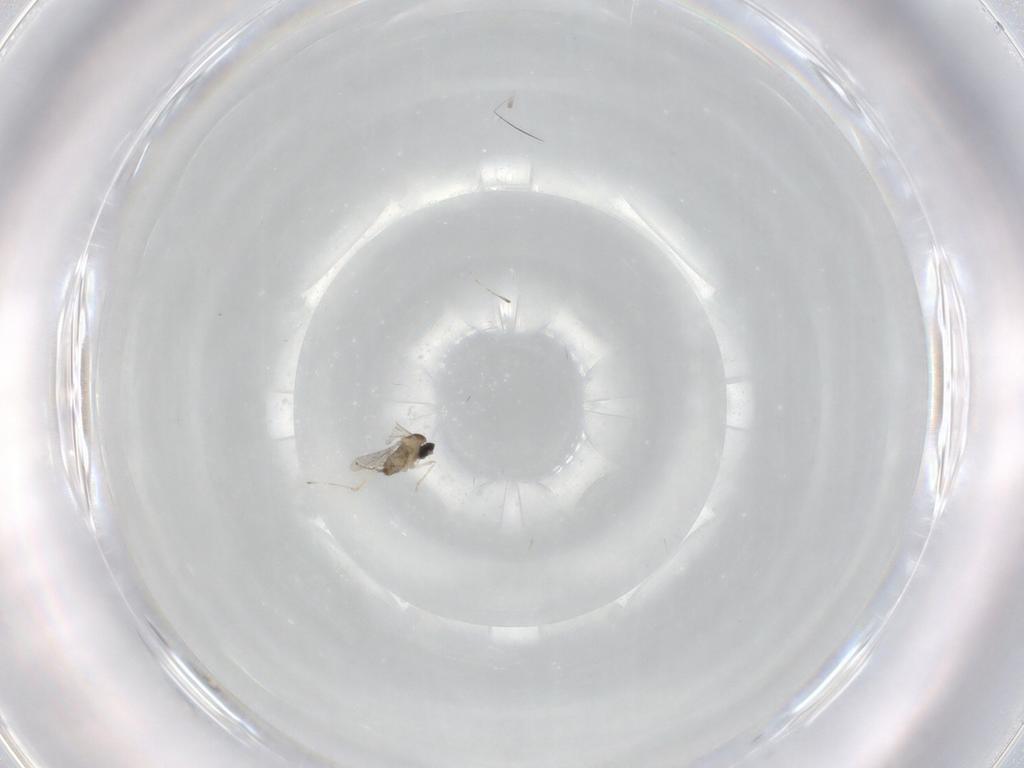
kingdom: Animalia
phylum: Arthropoda
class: Insecta
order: Diptera
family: Cecidomyiidae
